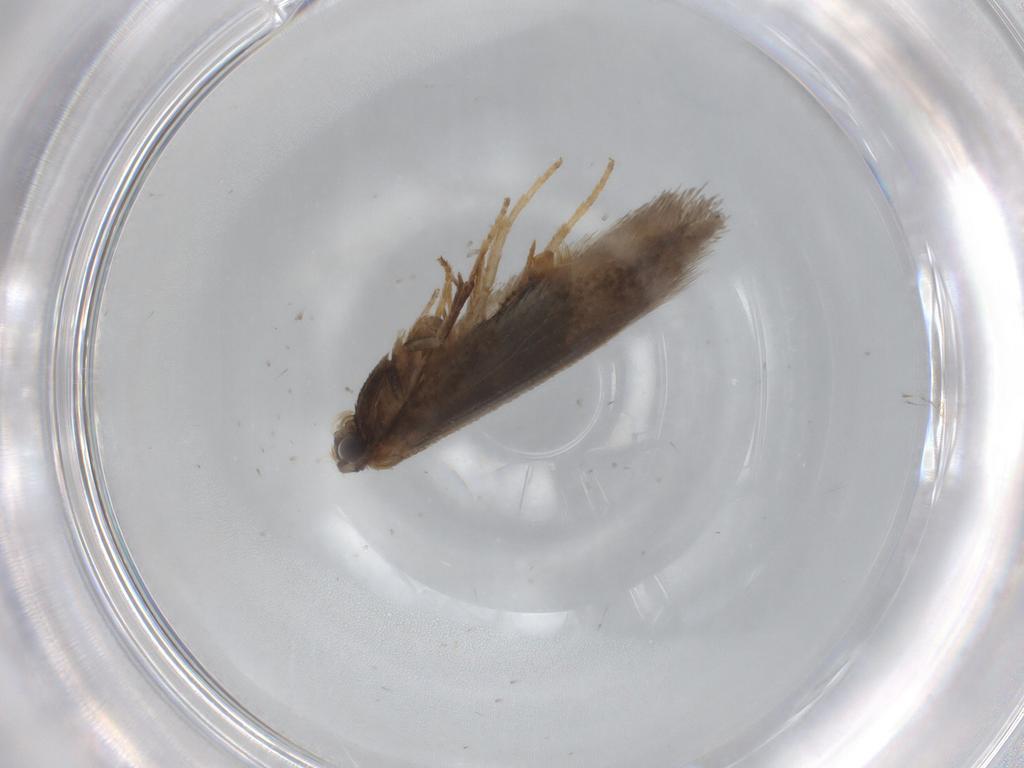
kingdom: Animalia
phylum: Arthropoda
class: Insecta
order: Lepidoptera
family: Nepticulidae
